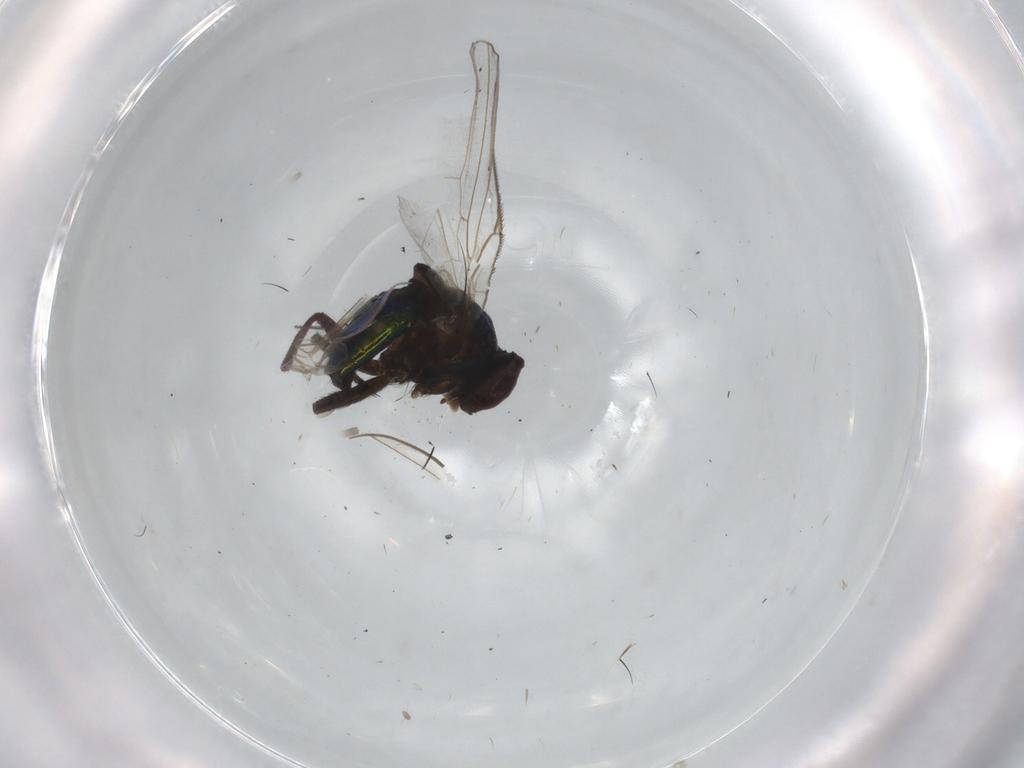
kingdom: Animalia
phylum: Arthropoda
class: Insecta
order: Diptera
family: Agromyzidae
